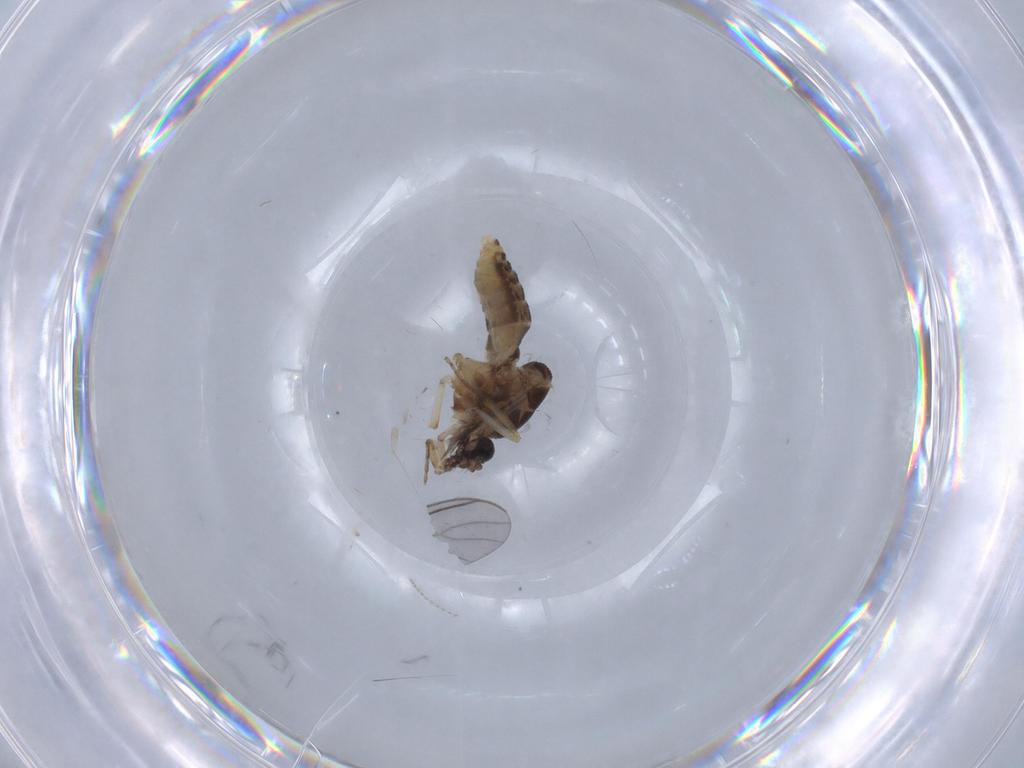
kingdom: Animalia
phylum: Arthropoda
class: Insecta
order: Diptera
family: Ceratopogonidae
